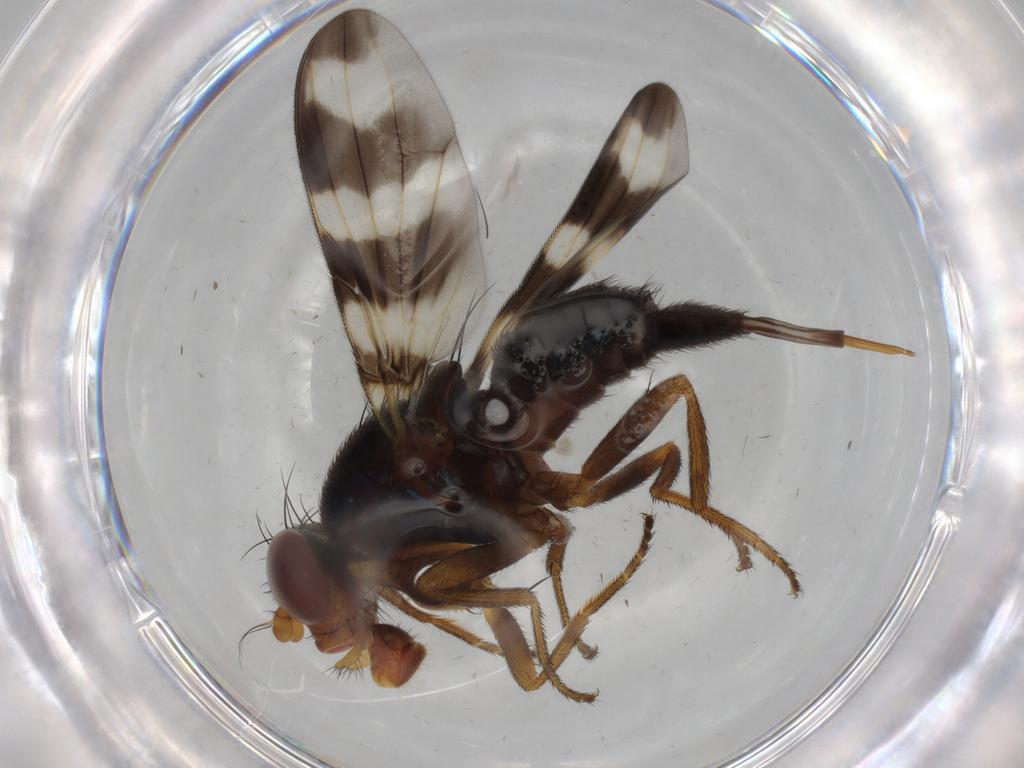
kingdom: Animalia
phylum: Arthropoda
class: Insecta
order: Diptera
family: Ulidiidae
